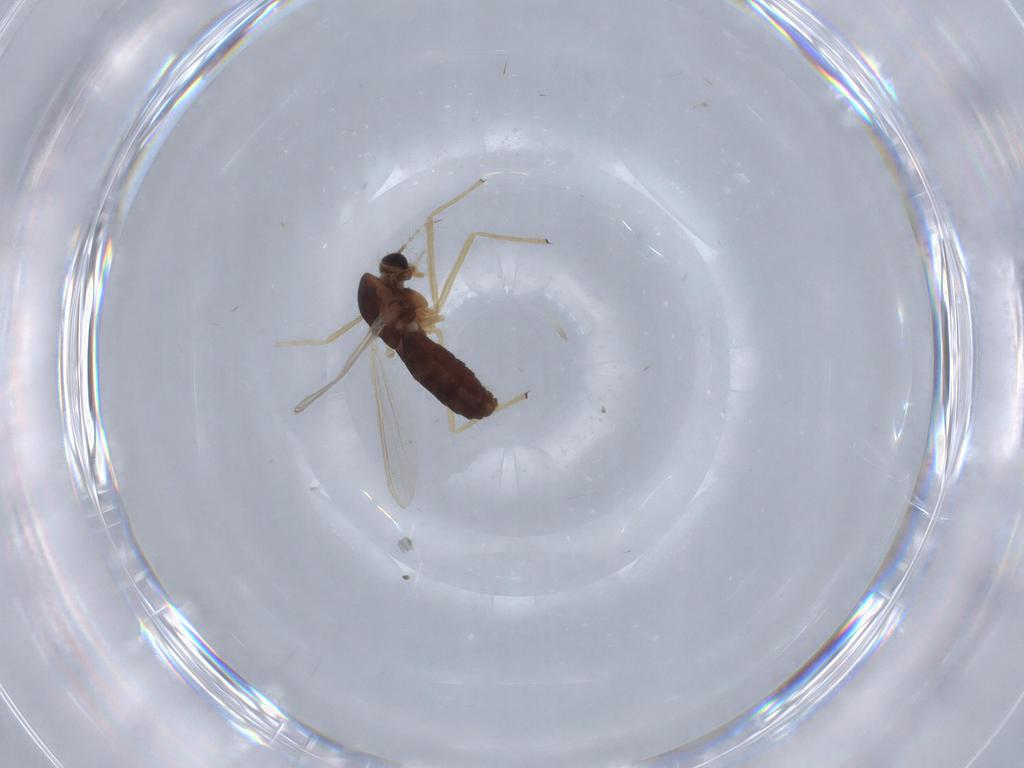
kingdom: Animalia
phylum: Arthropoda
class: Insecta
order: Diptera
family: Chironomidae
